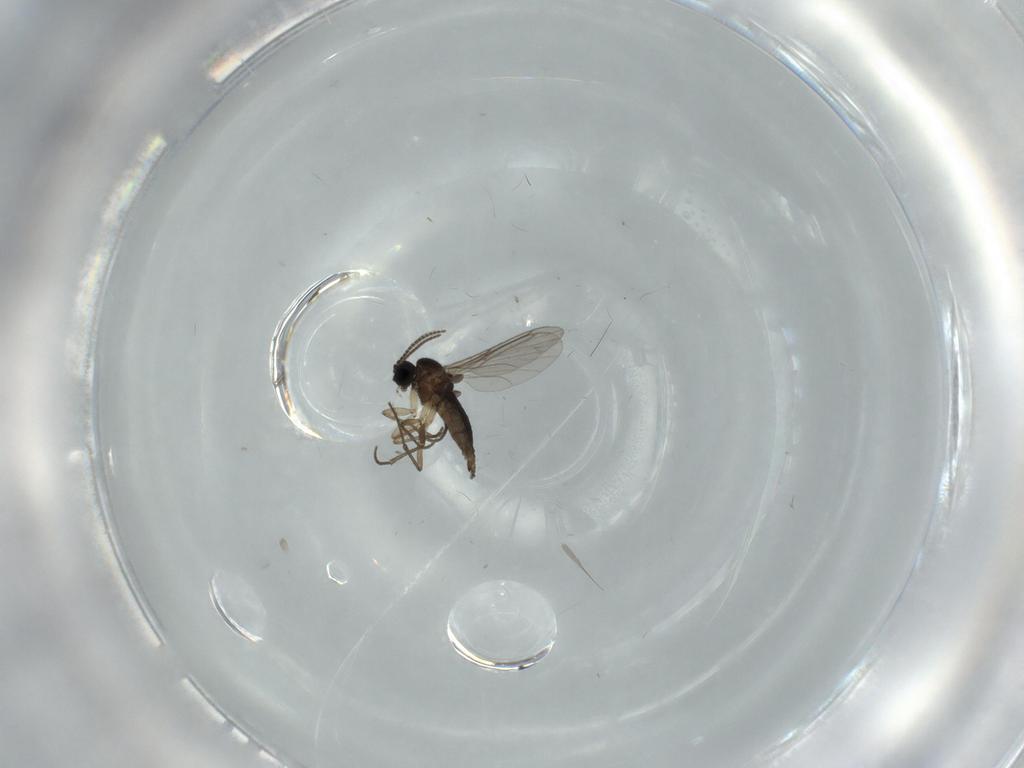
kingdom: Animalia
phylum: Arthropoda
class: Insecta
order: Diptera
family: Sciaridae
